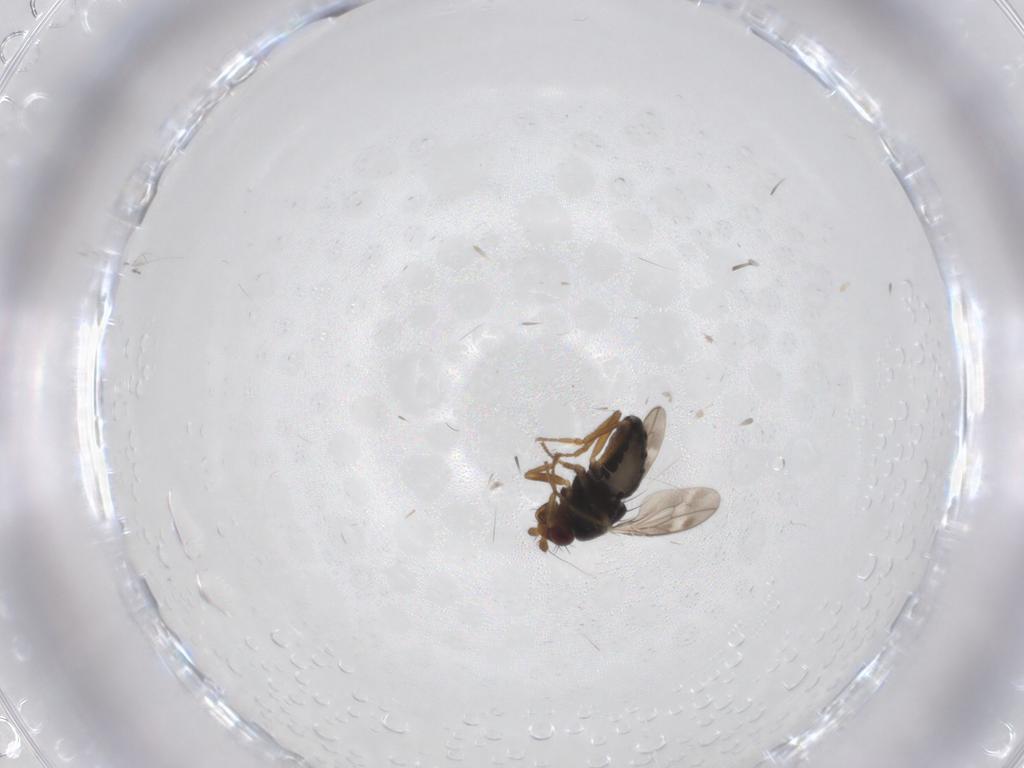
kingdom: Animalia
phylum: Arthropoda
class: Insecta
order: Diptera
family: Sphaeroceridae
